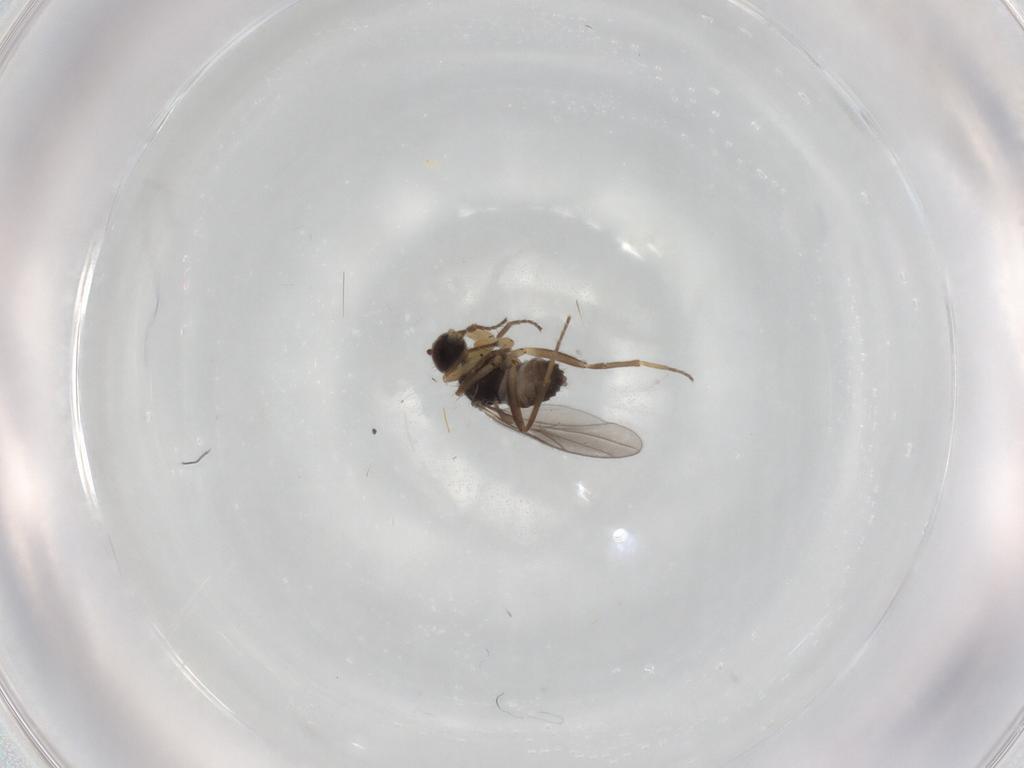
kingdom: Animalia
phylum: Arthropoda
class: Insecta
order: Diptera
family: Hybotidae
